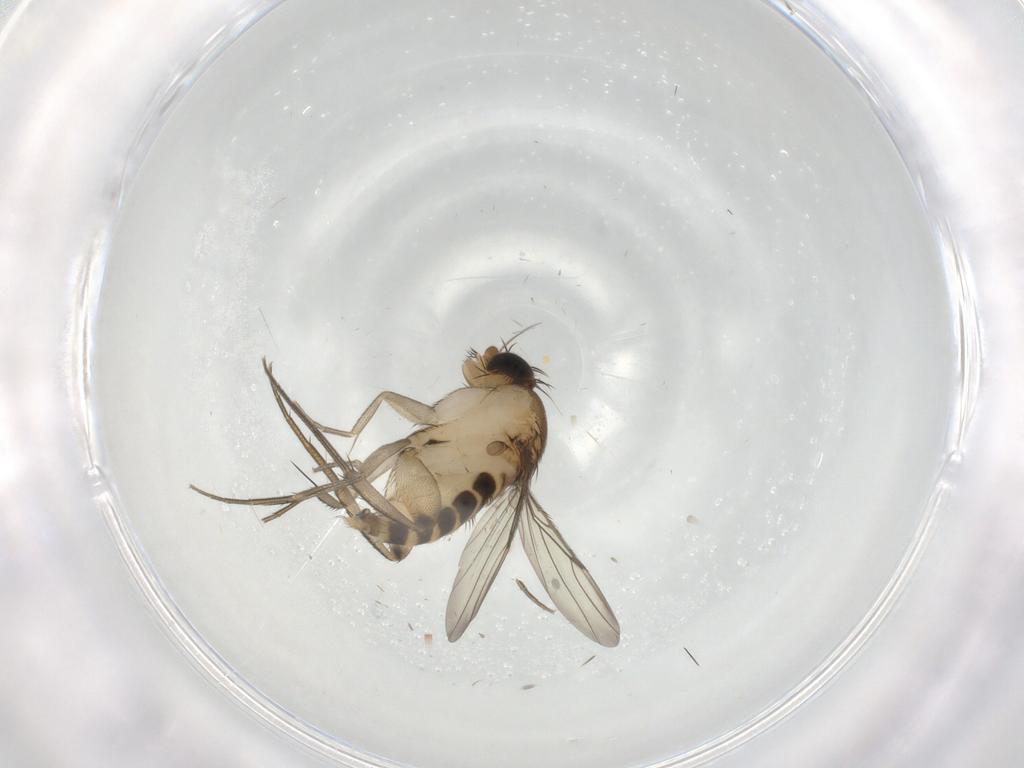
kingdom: Animalia
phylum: Arthropoda
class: Insecta
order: Diptera
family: Phoridae
